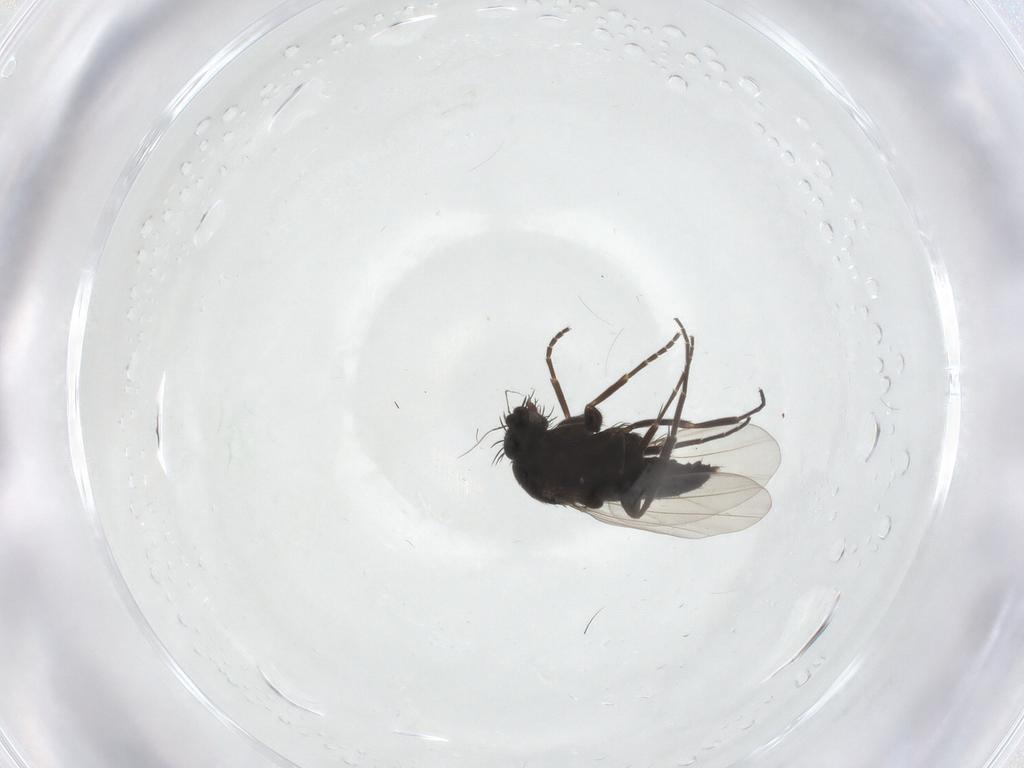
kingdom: Animalia
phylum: Arthropoda
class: Insecta
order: Diptera
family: Phoridae
